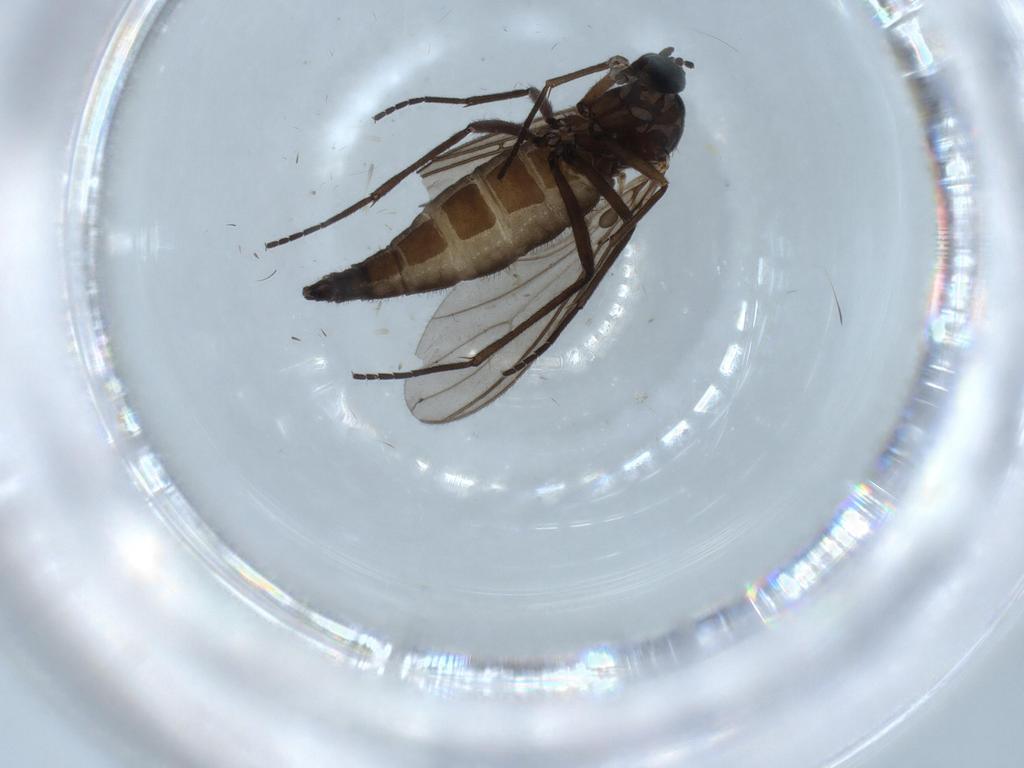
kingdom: Animalia
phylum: Arthropoda
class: Insecta
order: Diptera
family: Sciaridae
